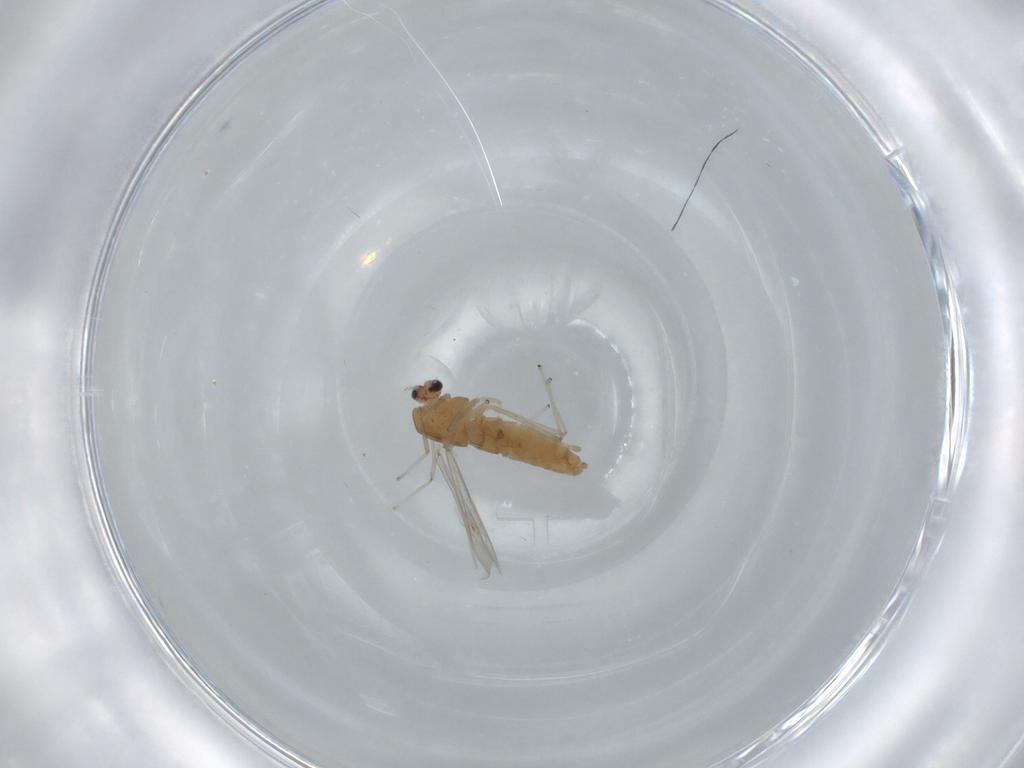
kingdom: Animalia
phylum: Arthropoda
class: Insecta
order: Diptera
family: Chironomidae
